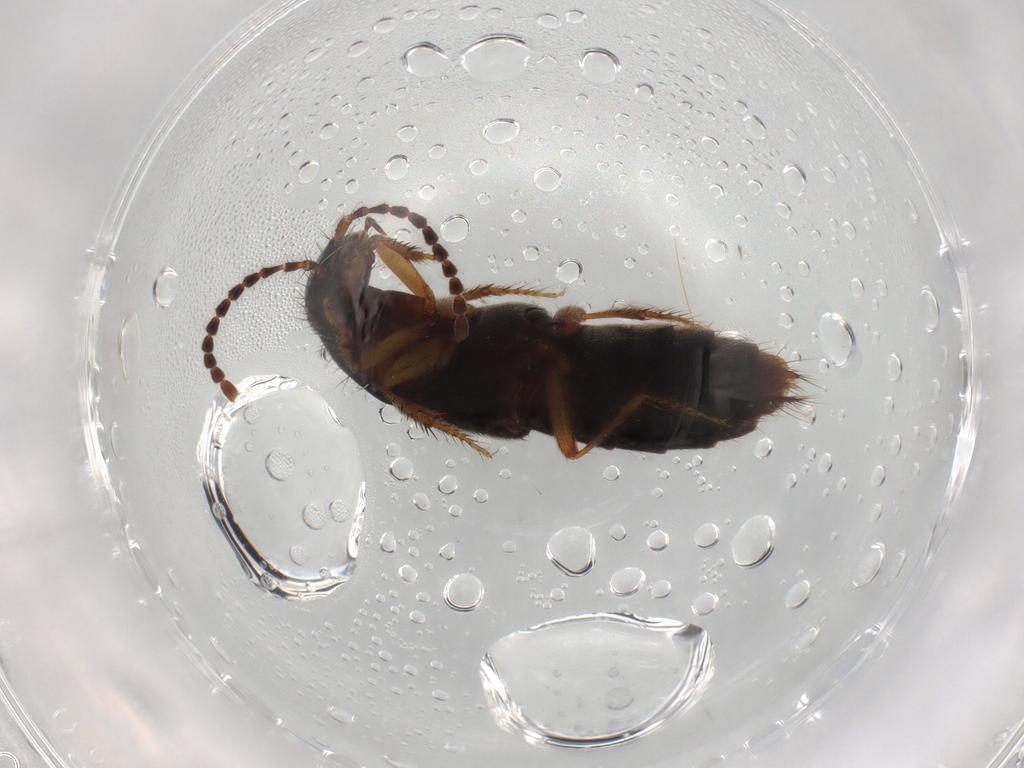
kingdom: Animalia
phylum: Arthropoda
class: Insecta
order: Coleoptera
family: Staphylinidae
